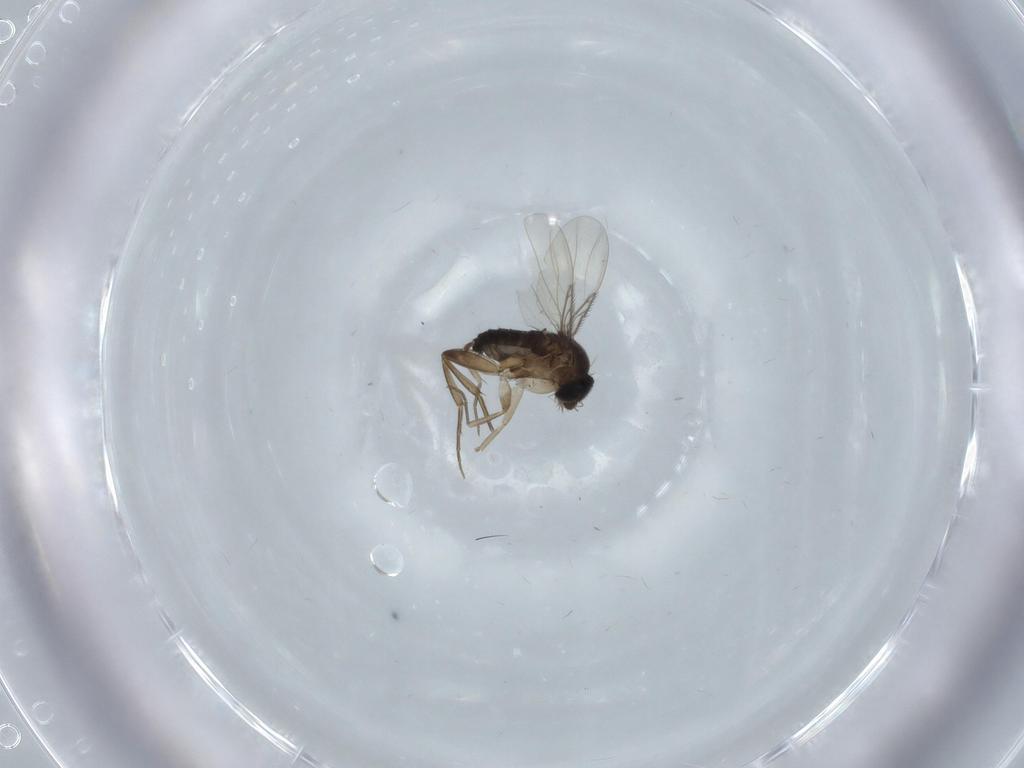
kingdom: Animalia
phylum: Arthropoda
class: Insecta
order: Diptera
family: Phoridae
